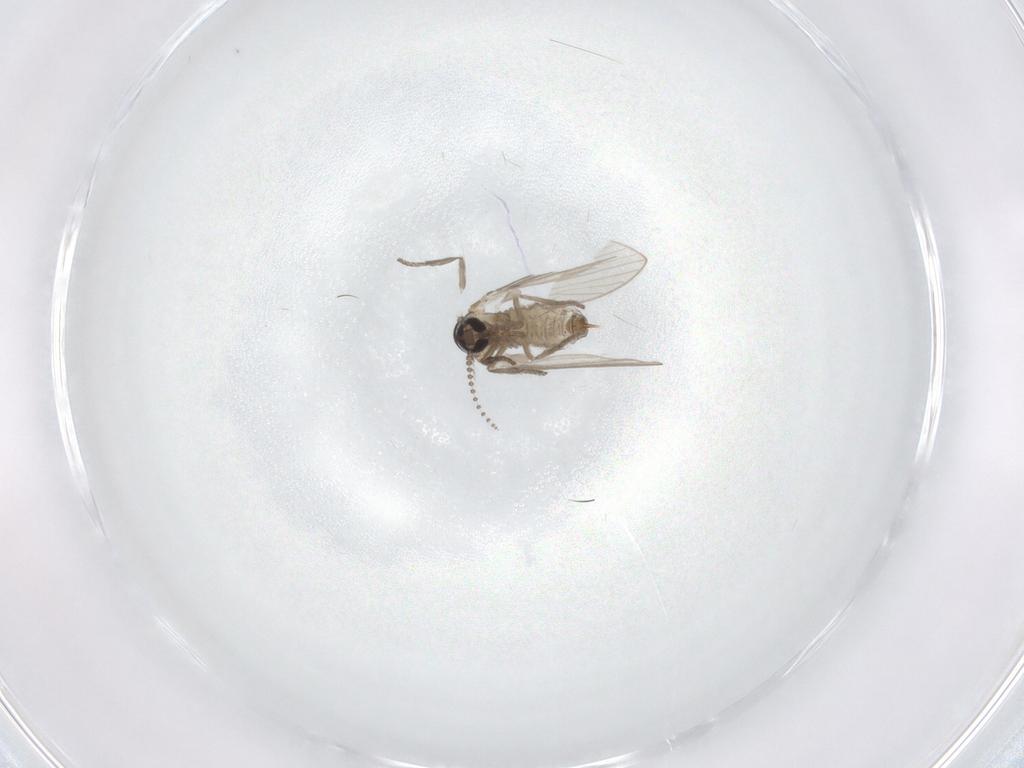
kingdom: Animalia
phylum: Arthropoda
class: Insecta
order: Diptera
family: Psychodidae
